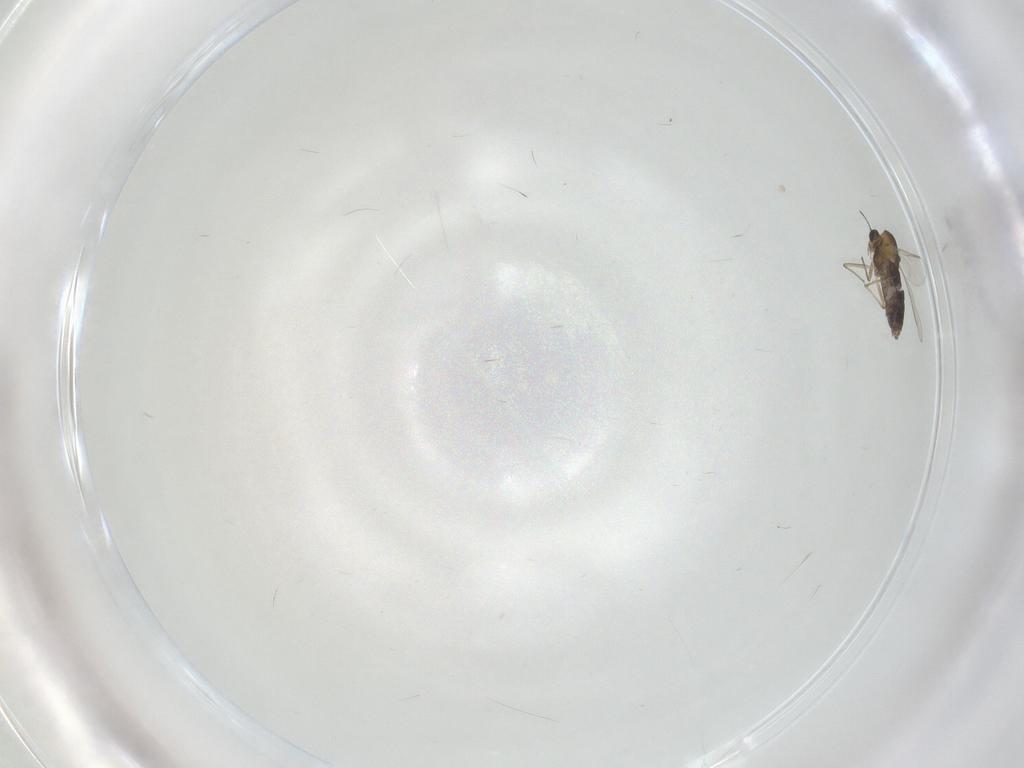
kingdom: Animalia
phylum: Arthropoda
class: Insecta
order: Diptera
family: Chironomidae
